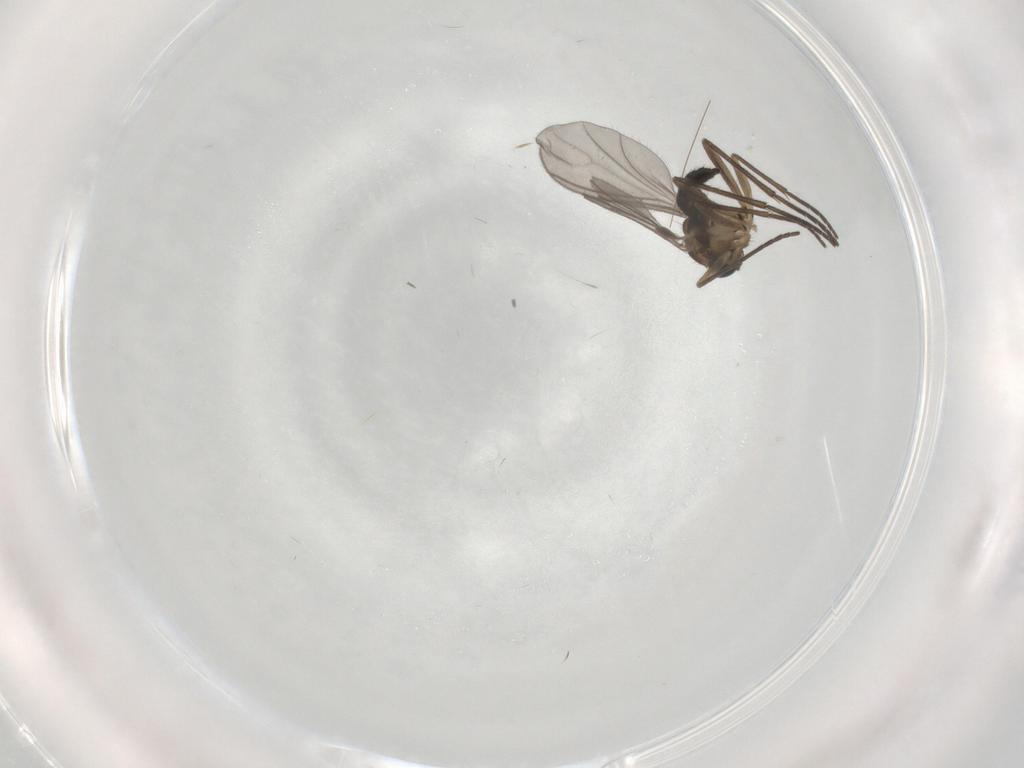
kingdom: Animalia
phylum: Arthropoda
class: Insecta
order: Diptera
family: Sciaridae
